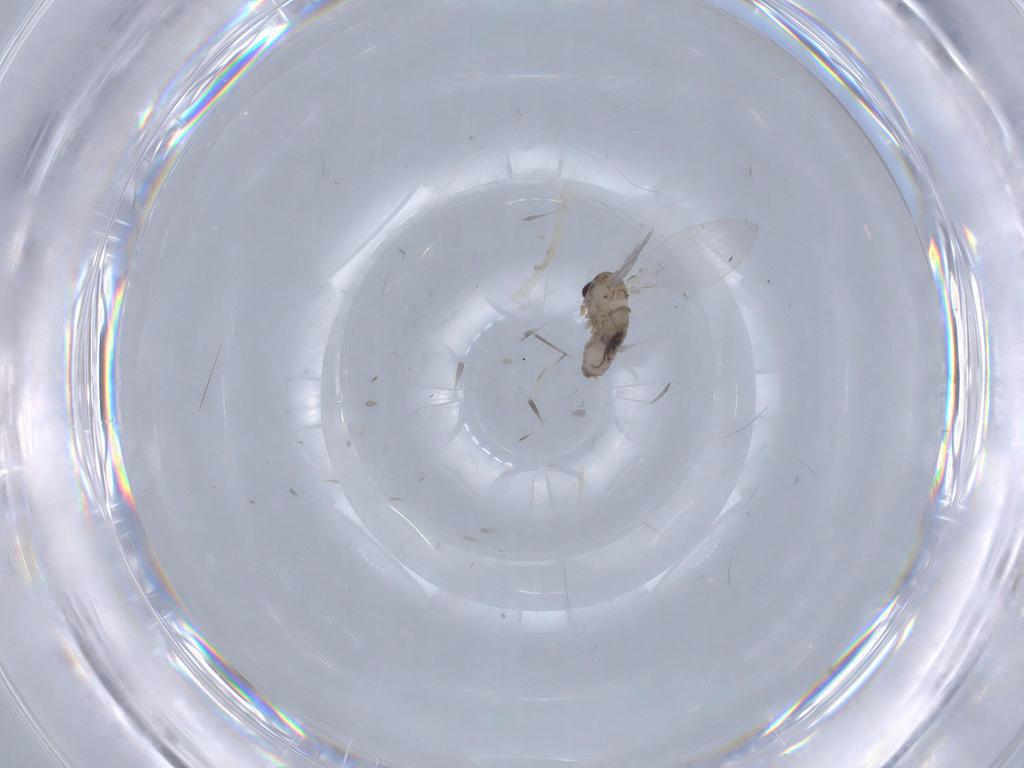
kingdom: Animalia
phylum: Arthropoda
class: Insecta
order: Diptera
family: Psychodidae
